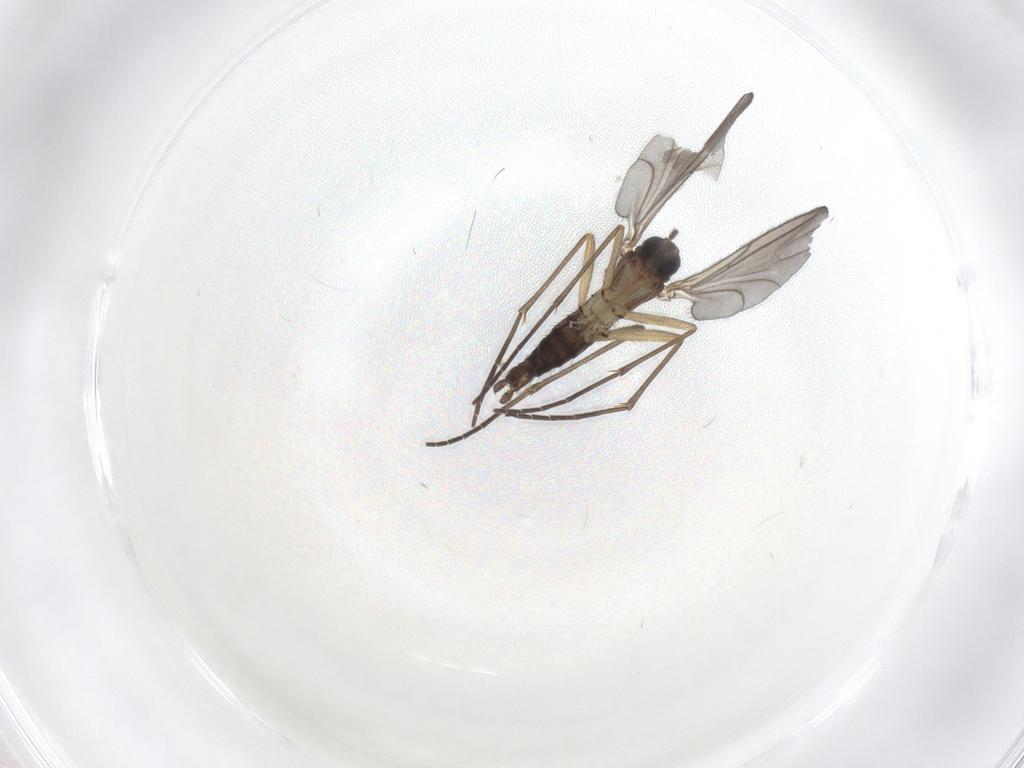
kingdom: Animalia
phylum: Arthropoda
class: Insecta
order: Diptera
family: Sciaridae
